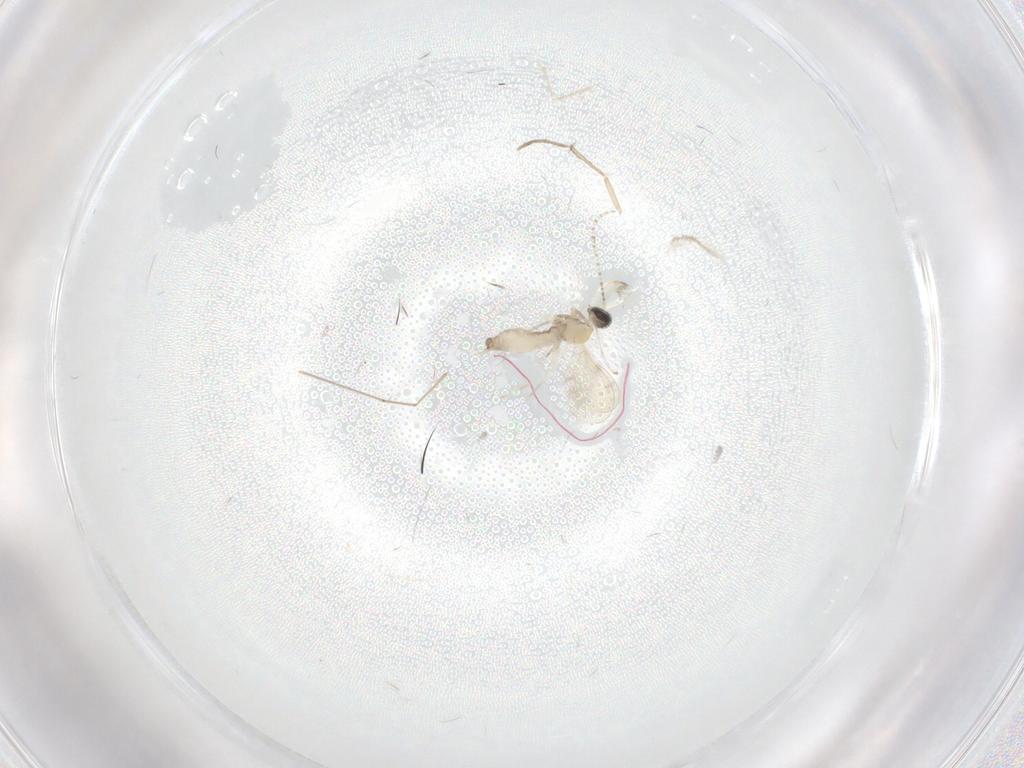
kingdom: Animalia
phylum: Arthropoda
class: Insecta
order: Diptera
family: Cecidomyiidae
